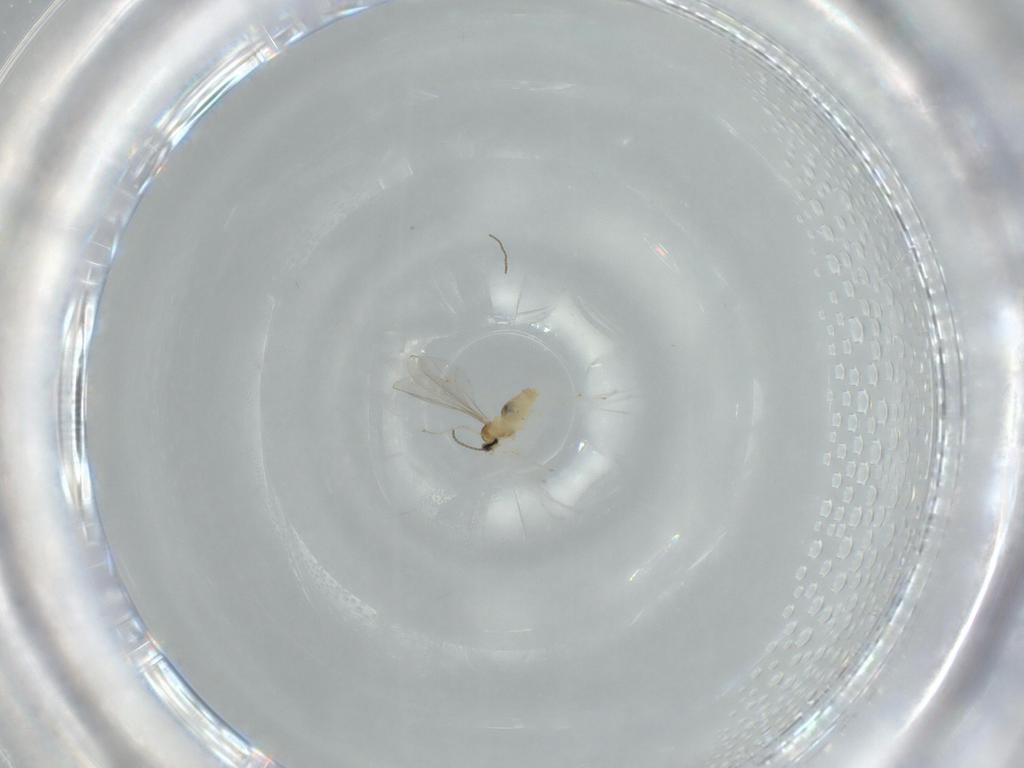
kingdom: Animalia
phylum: Arthropoda
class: Insecta
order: Diptera
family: Cecidomyiidae
